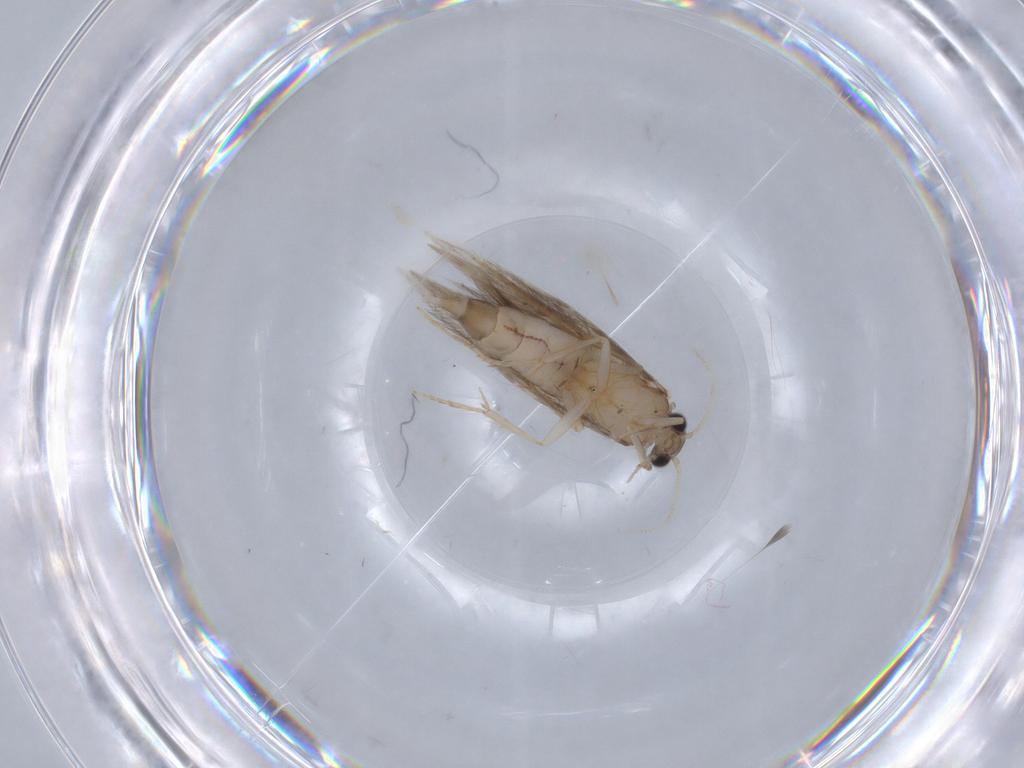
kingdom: Animalia
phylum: Arthropoda
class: Insecta
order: Trichoptera
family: Hydroptilidae
